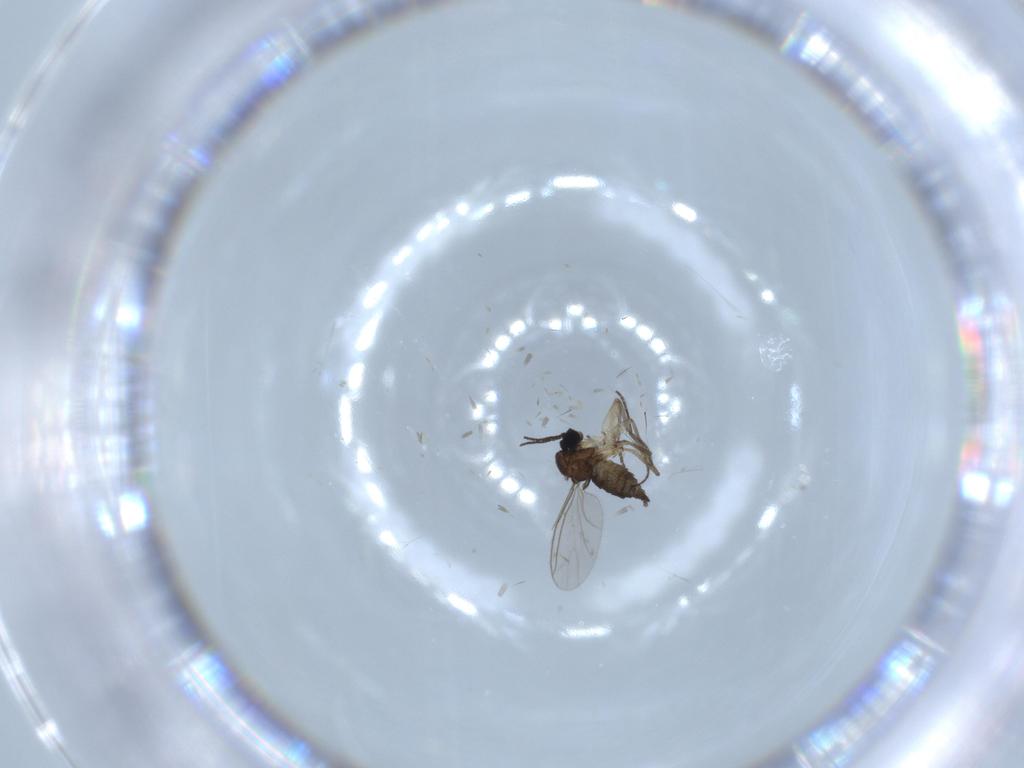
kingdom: Animalia
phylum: Arthropoda
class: Insecta
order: Diptera
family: Sciaridae
